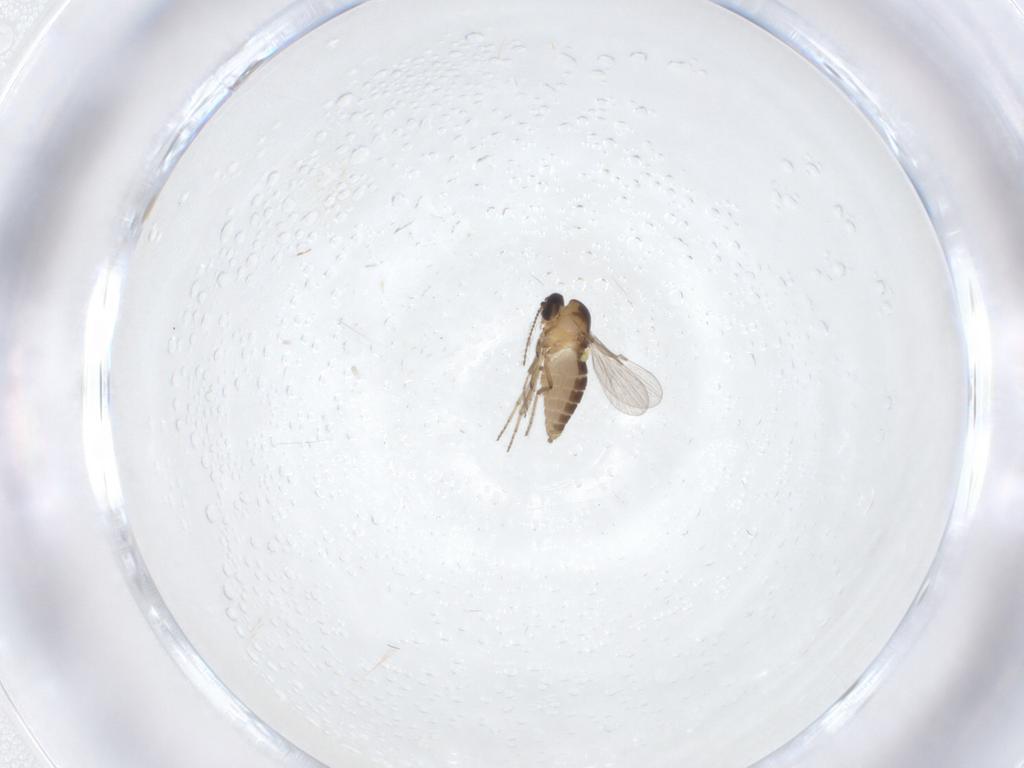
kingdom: Animalia
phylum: Arthropoda
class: Insecta
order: Diptera
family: Ceratopogonidae
